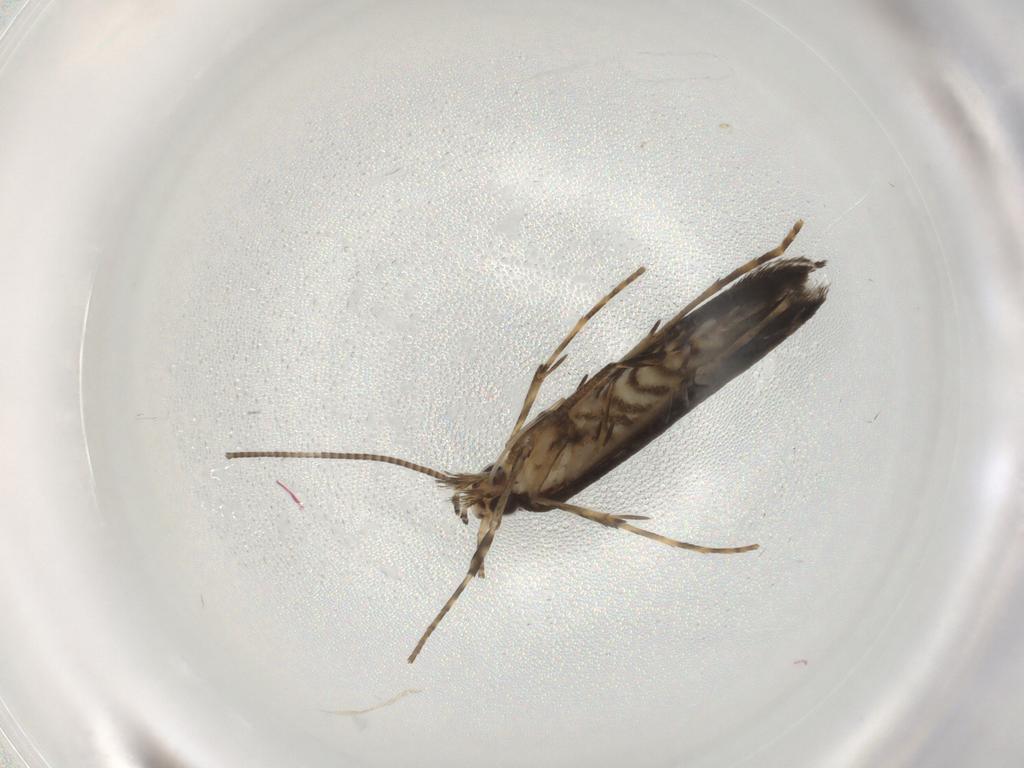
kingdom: Animalia
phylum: Arthropoda
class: Insecta
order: Lepidoptera
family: Gracillariidae
